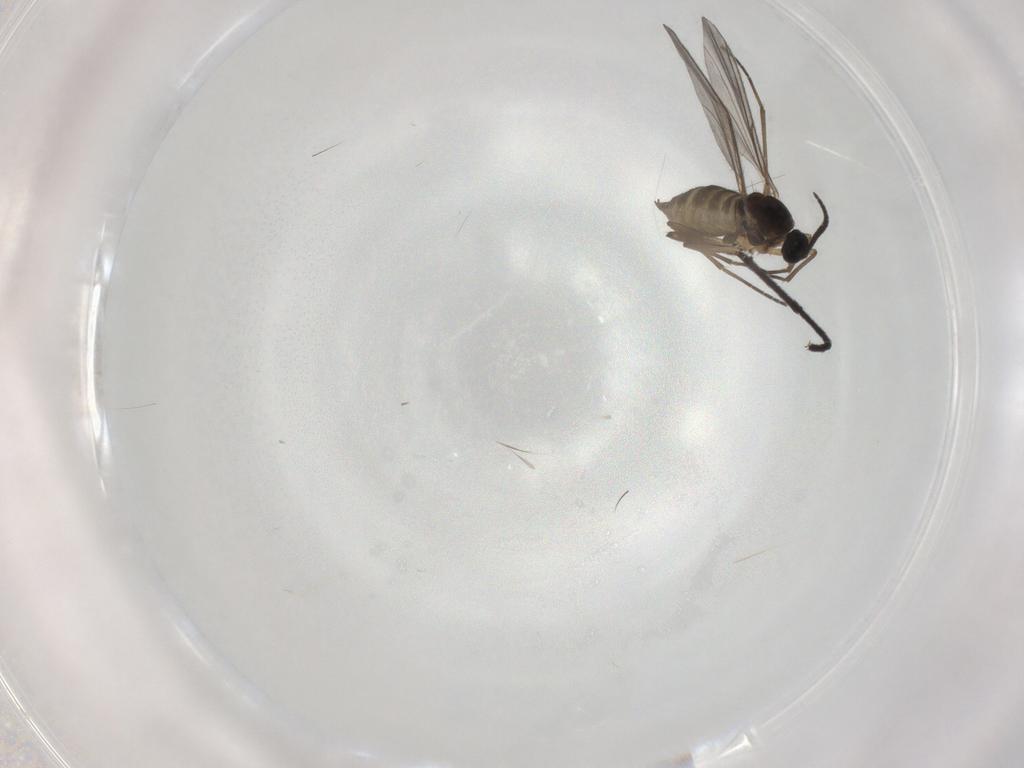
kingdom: Animalia
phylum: Arthropoda
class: Insecta
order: Diptera
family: Sciaridae
